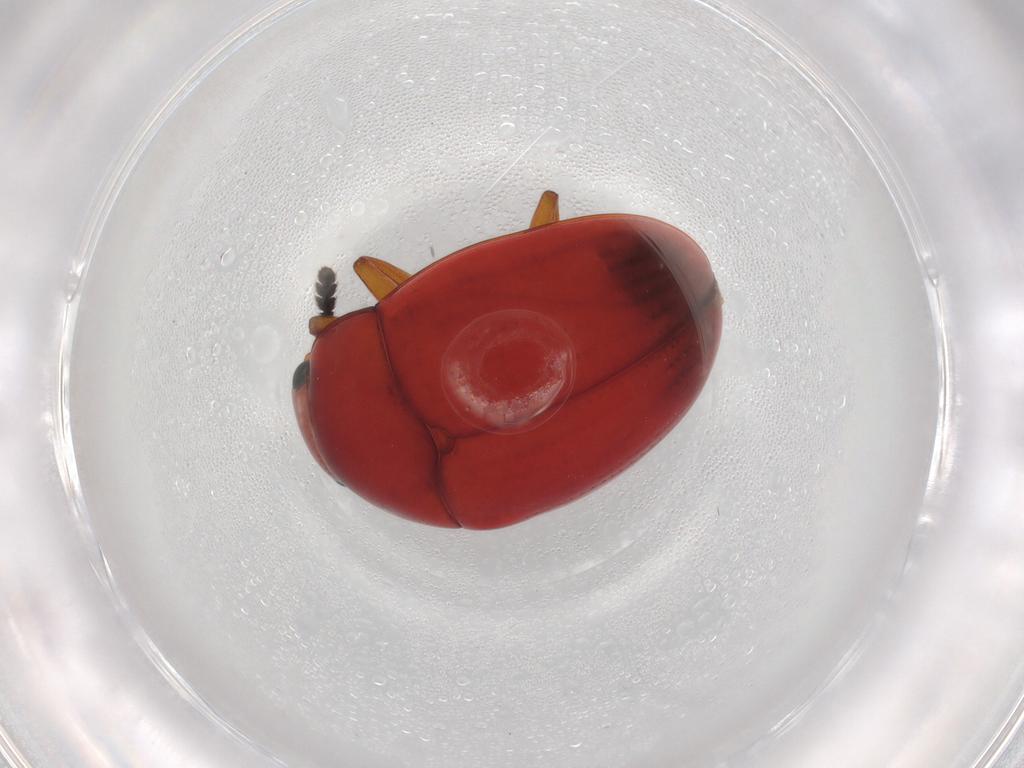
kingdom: Animalia
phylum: Arthropoda
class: Insecta
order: Coleoptera
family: Erotylidae
